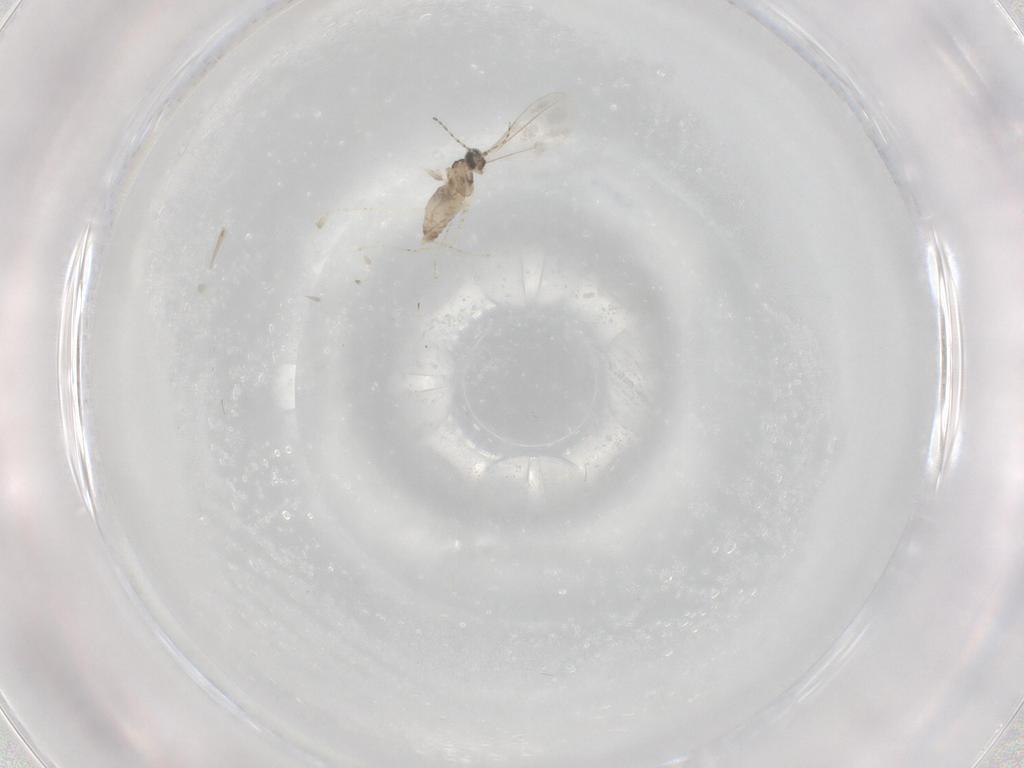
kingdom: Animalia
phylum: Arthropoda
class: Insecta
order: Diptera
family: Cecidomyiidae
